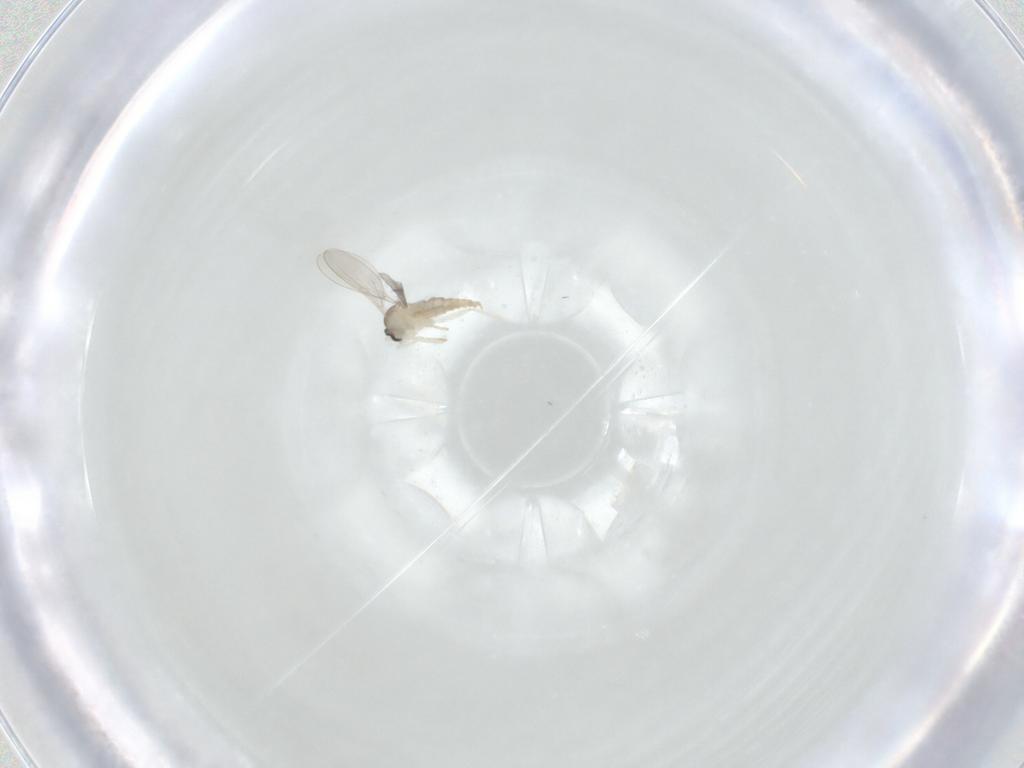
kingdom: Animalia
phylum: Arthropoda
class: Insecta
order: Diptera
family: Cecidomyiidae
